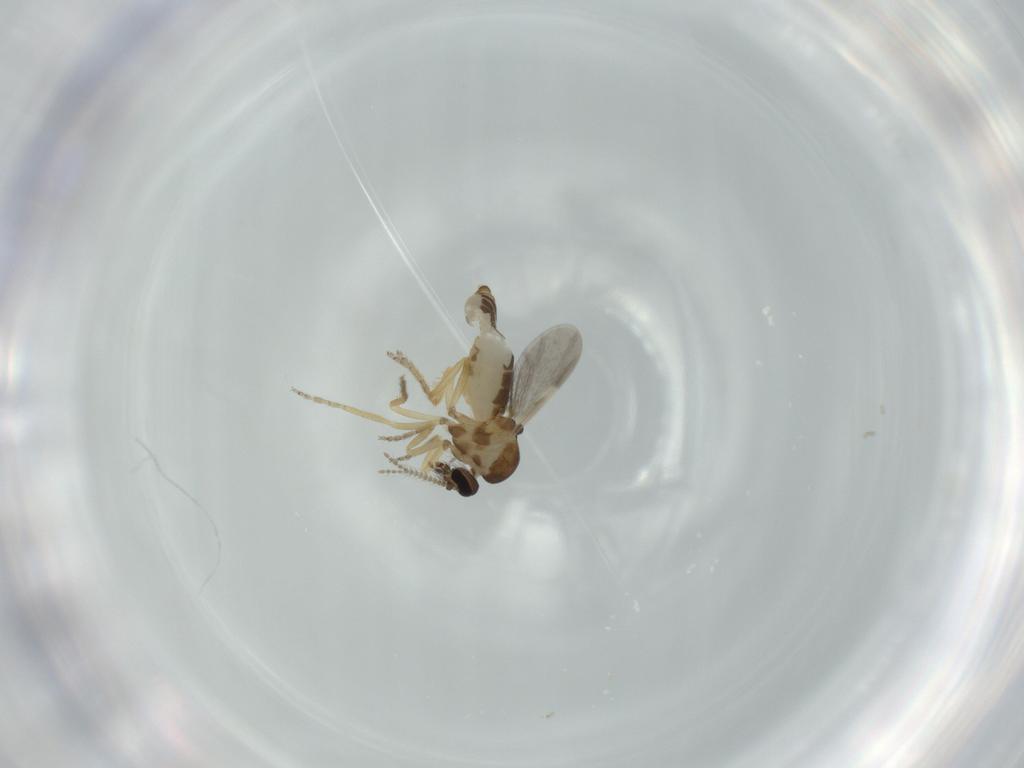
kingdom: Animalia
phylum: Arthropoda
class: Insecta
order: Diptera
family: Ceratopogonidae
